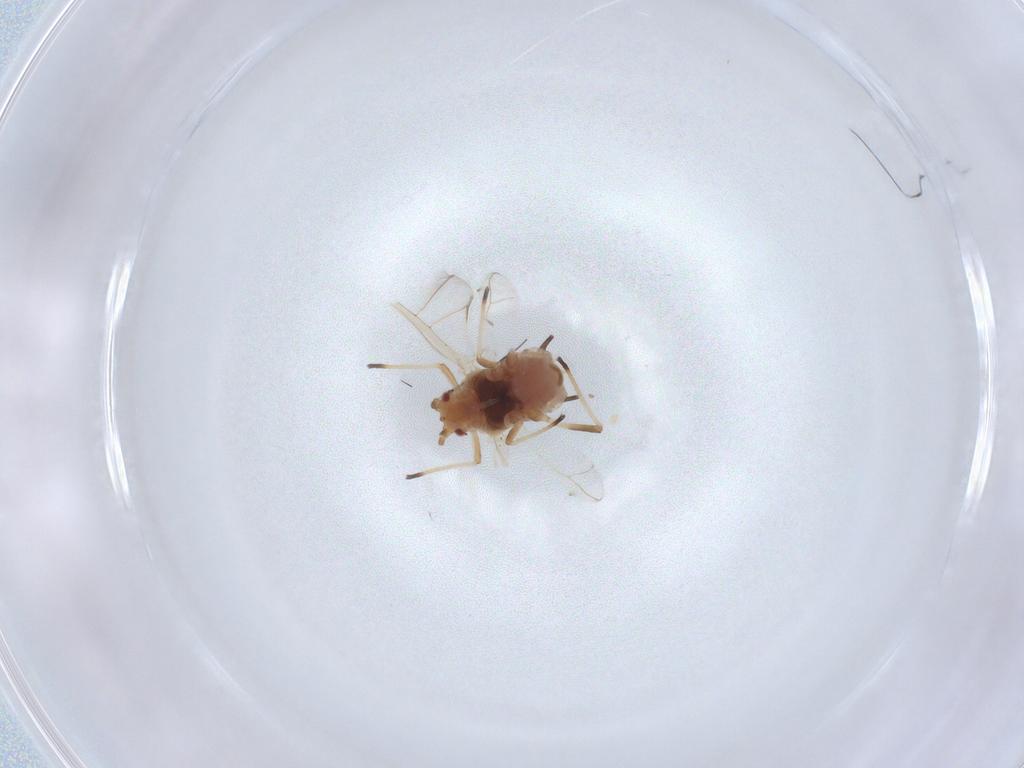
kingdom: Animalia
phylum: Arthropoda
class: Insecta
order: Hemiptera
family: Aphididae
